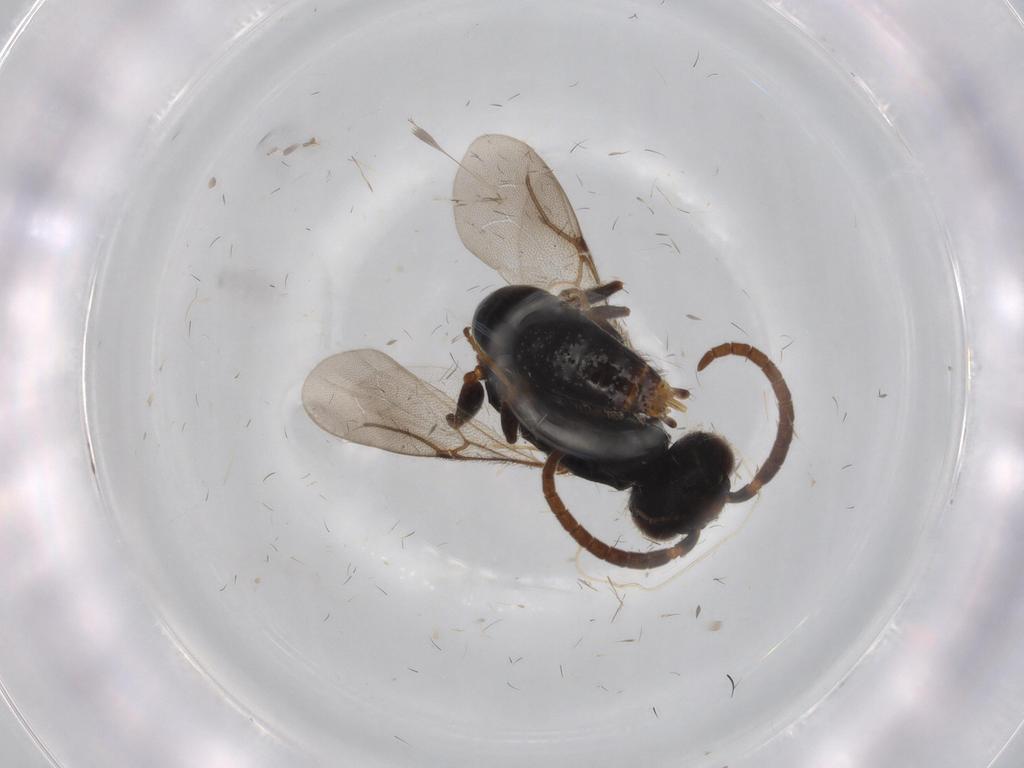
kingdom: Animalia
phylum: Arthropoda
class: Insecta
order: Hymenoptera
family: Bethylidae
